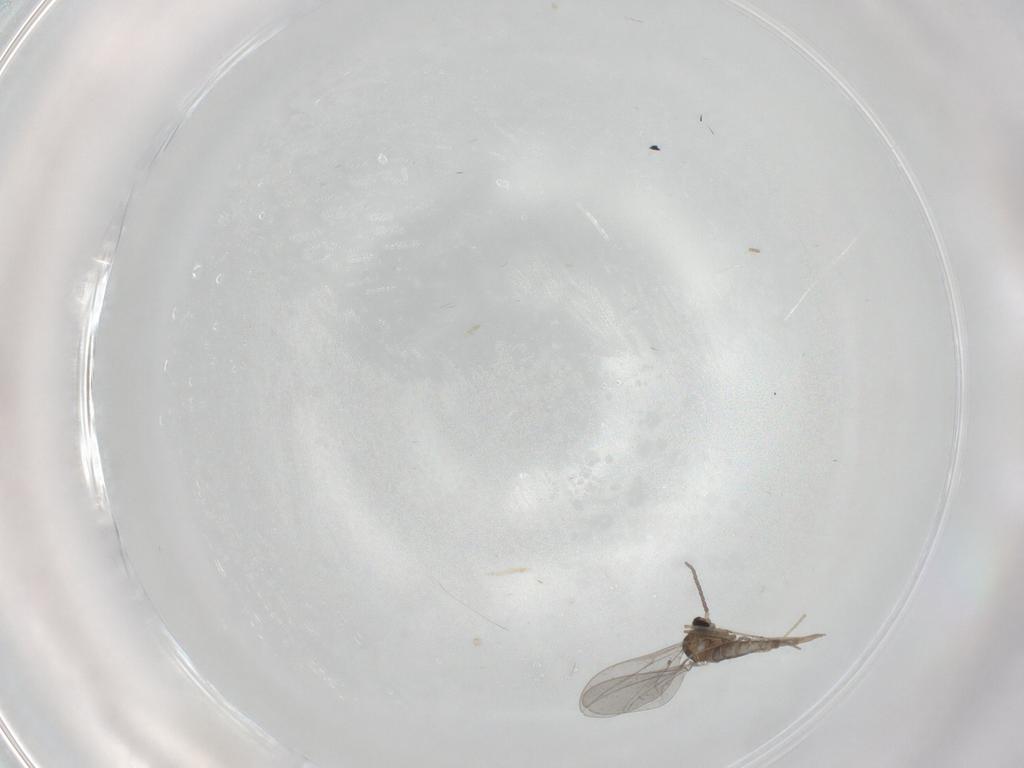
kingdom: Animalia
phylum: Arthropoda
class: Insecta
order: Diptera
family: Cecidomyiidae
